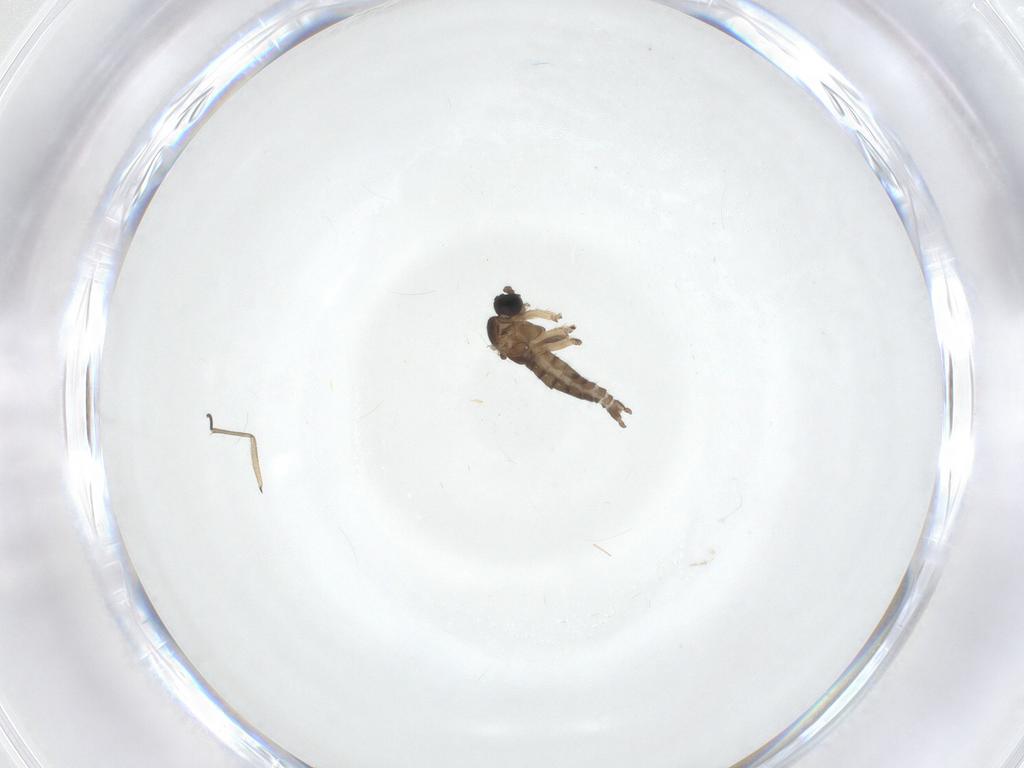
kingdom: Animalia
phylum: Arthropoda
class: Insecta
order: Diptera
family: Sciaridae
